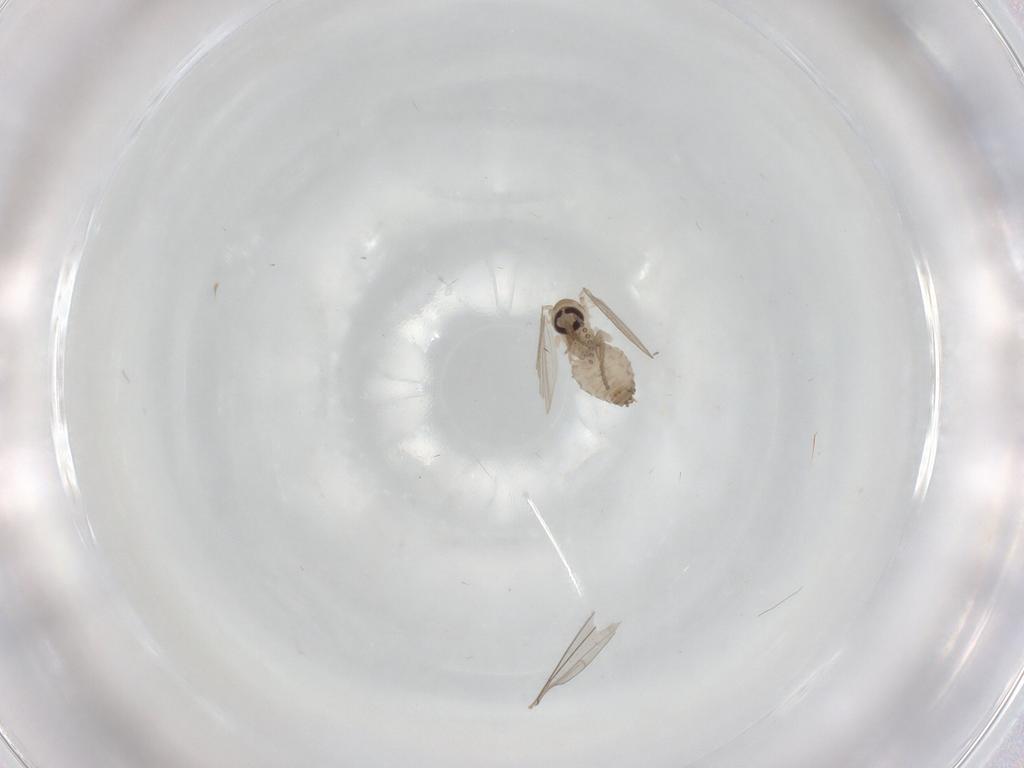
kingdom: Animalia
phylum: Arthropoda
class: Insecta
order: Diptera
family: Psychodidae
